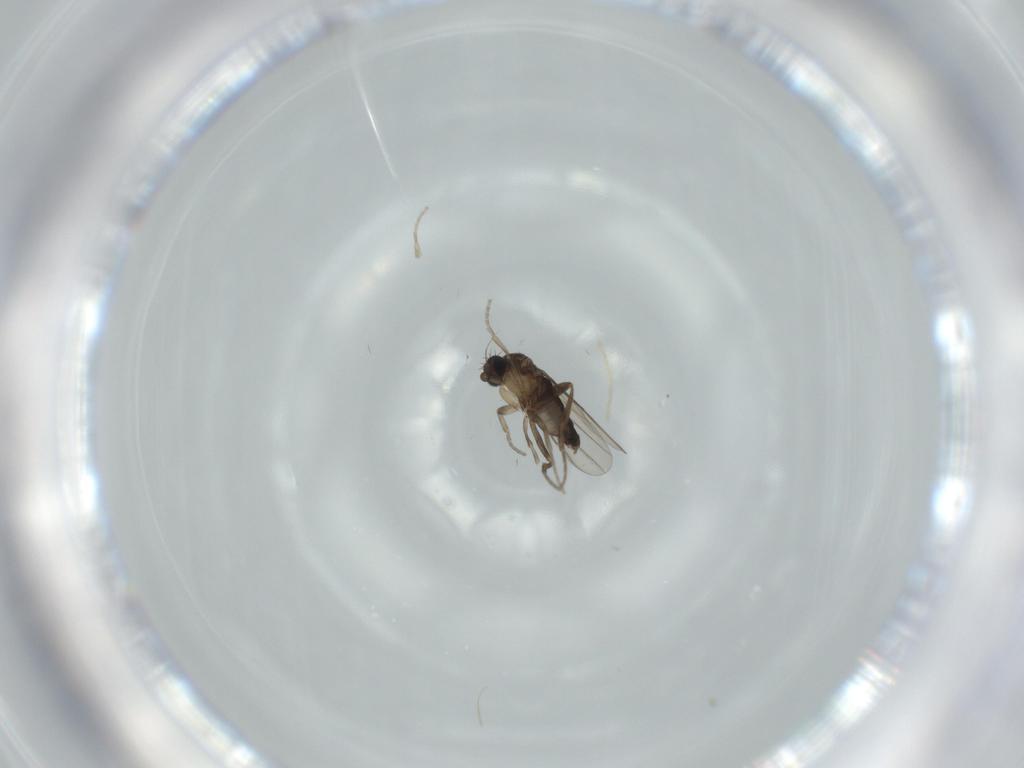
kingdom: Animalia
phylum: Arthropoda
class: Insecta
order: Diptera
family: Phoridae
